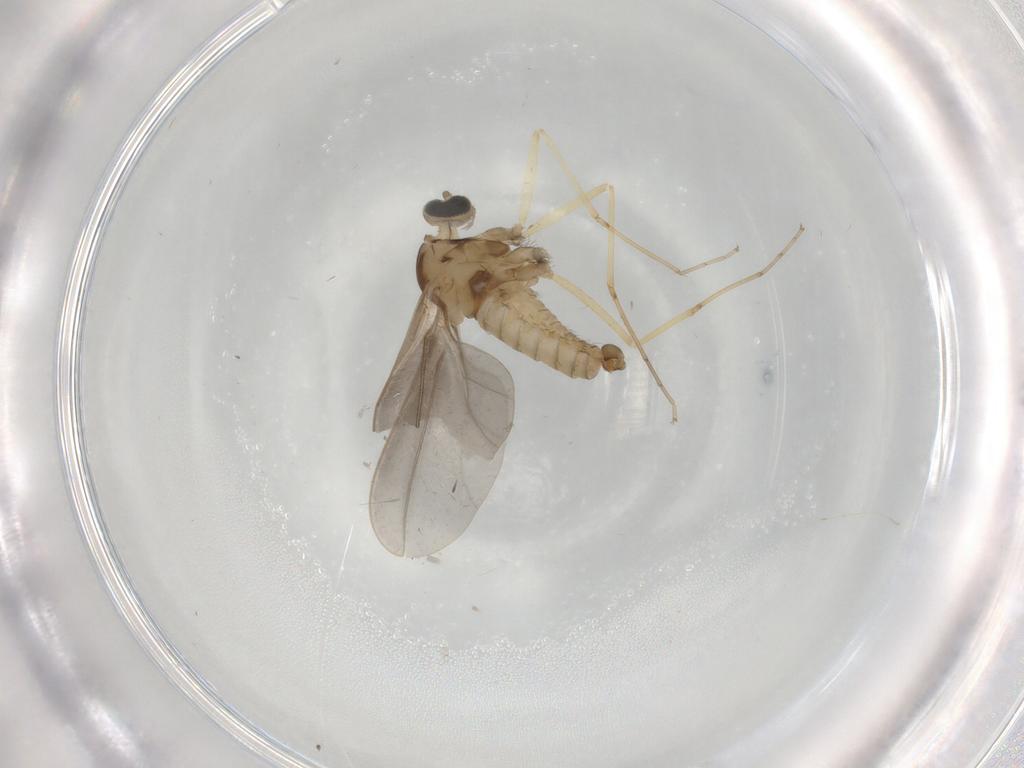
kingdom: Animalia
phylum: Arthropoda
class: Insecta
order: Diptera
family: Cecidomyiidae
